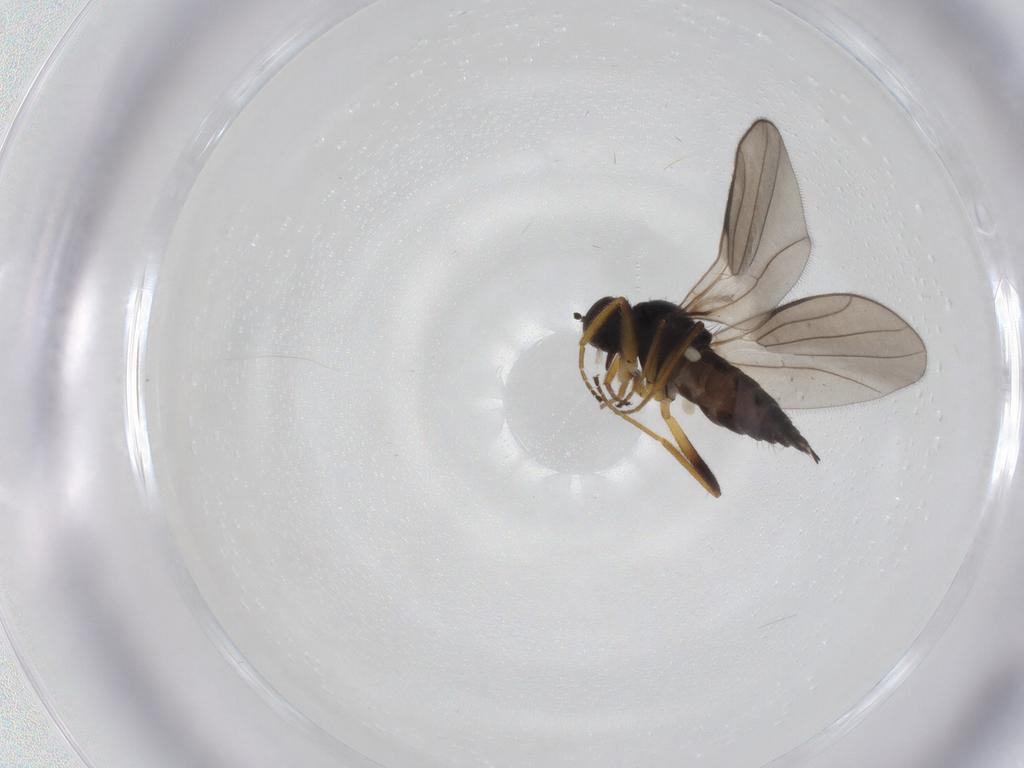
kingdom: Animalia
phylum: Arthropoda
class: Insecta
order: Diptera
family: Hybotidae
